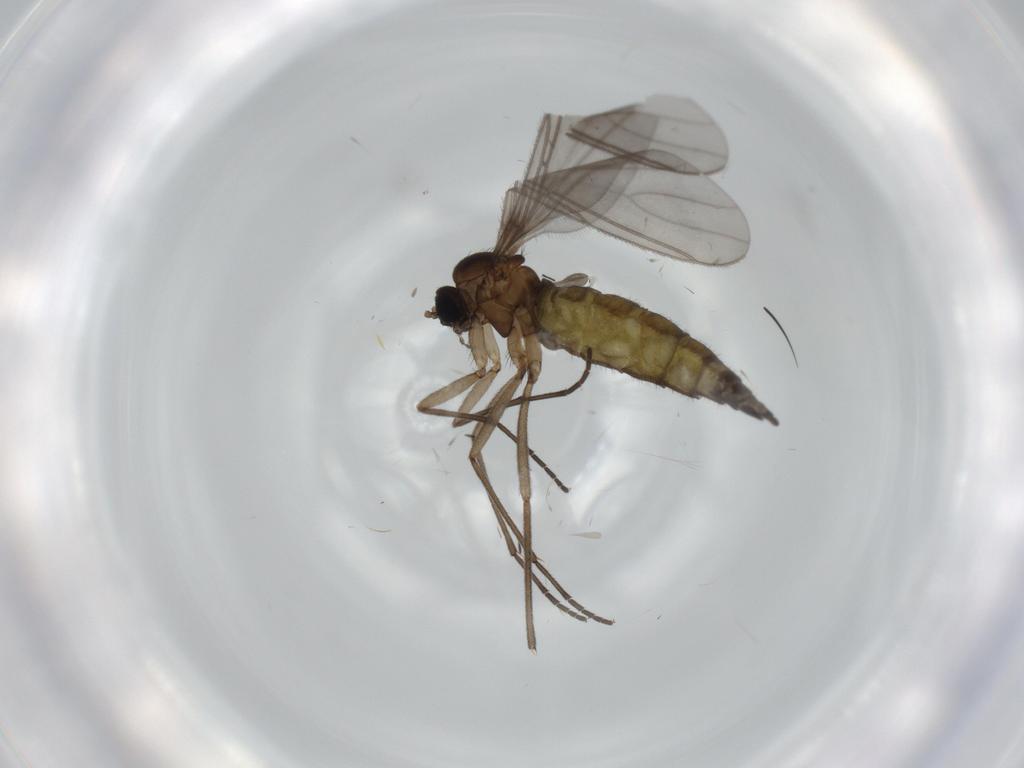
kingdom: Animalia
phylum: Arthropoda
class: Insecta
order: Diptera
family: Sciaridae
